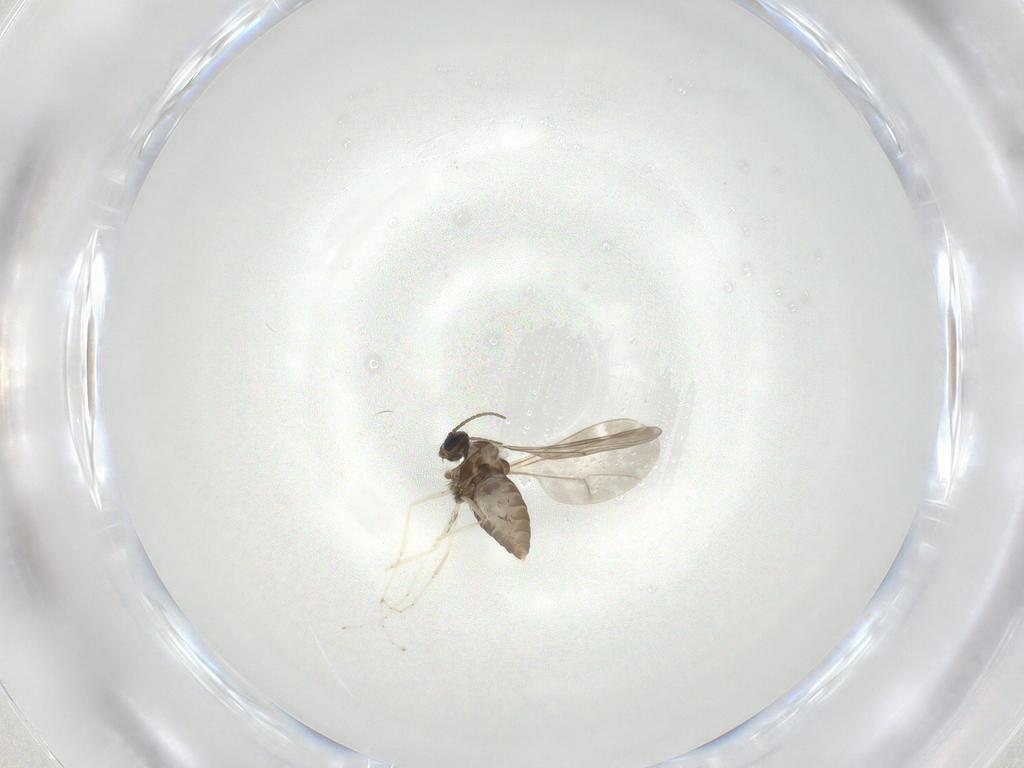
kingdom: Animalia
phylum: Arthropoda
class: Insecta
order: Diptera
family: Cecidomyiidae
